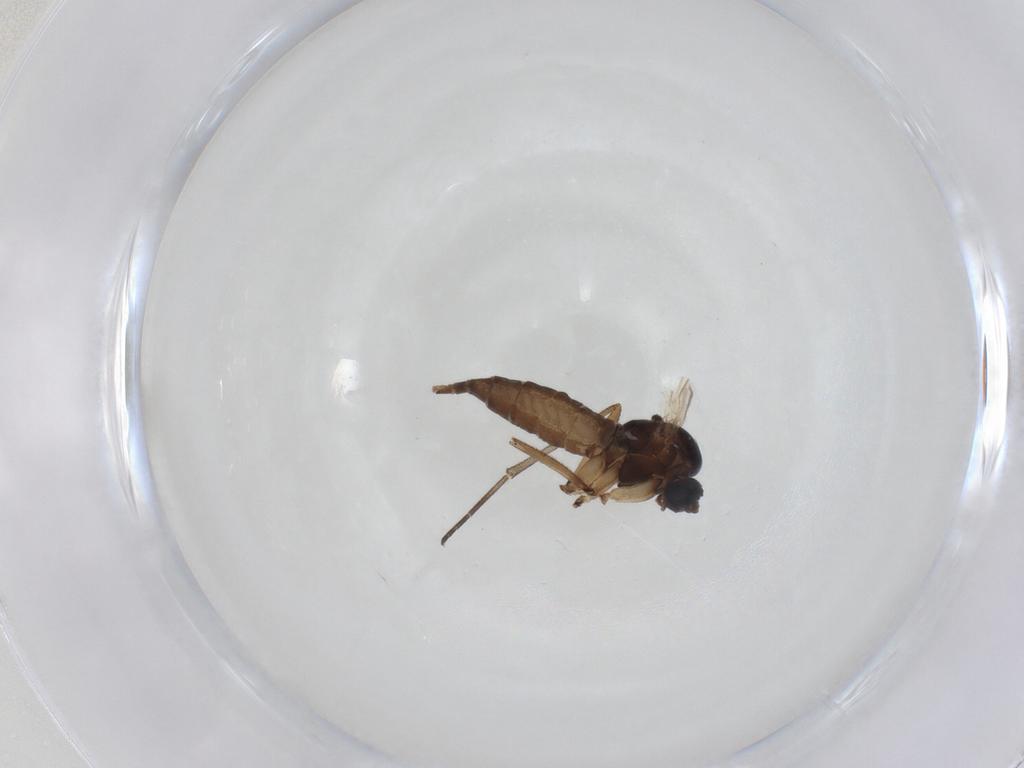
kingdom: Animalia
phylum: Arthropoda
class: Insecta
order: Diptera
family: Sciaridae
